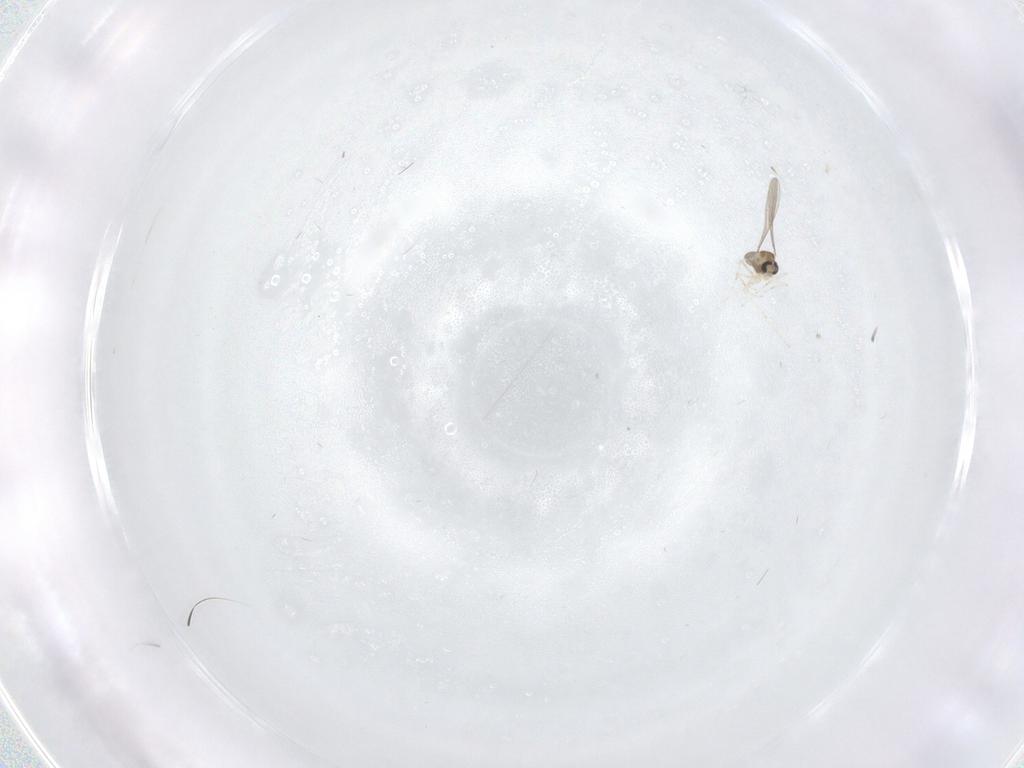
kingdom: Animalia
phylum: Arthropoda
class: Insecta
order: Diptera
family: Cecidomyiidae
